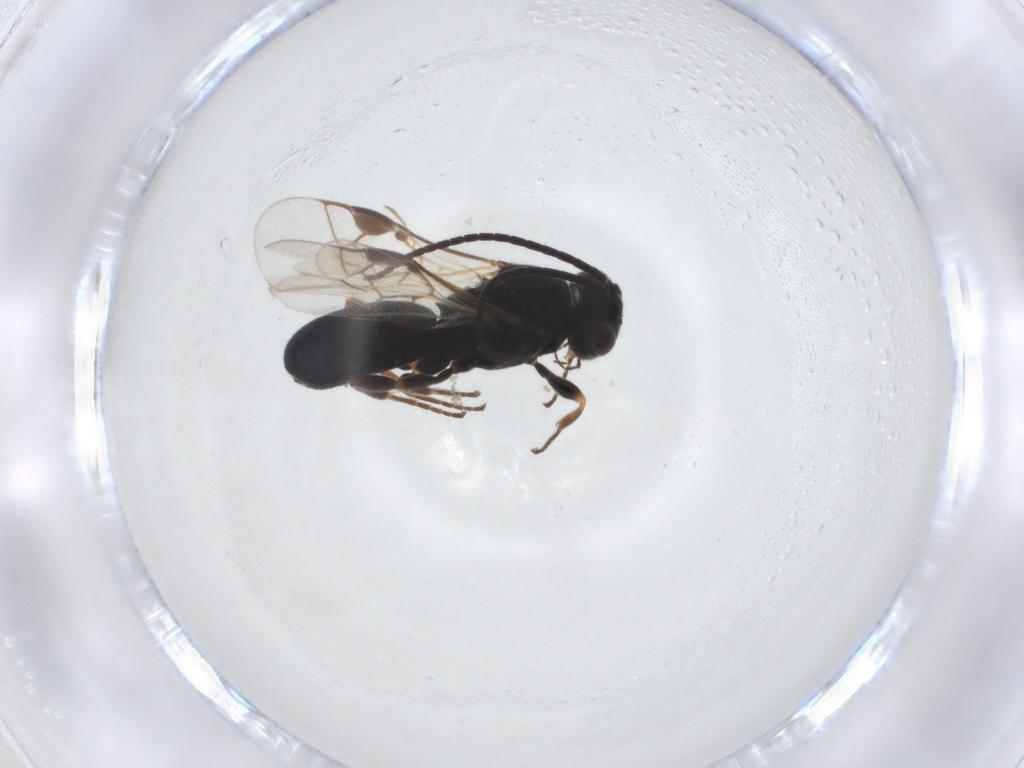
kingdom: Animalia
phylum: Arthropoda
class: Insecta
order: Hymenoptera
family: Braconidae
